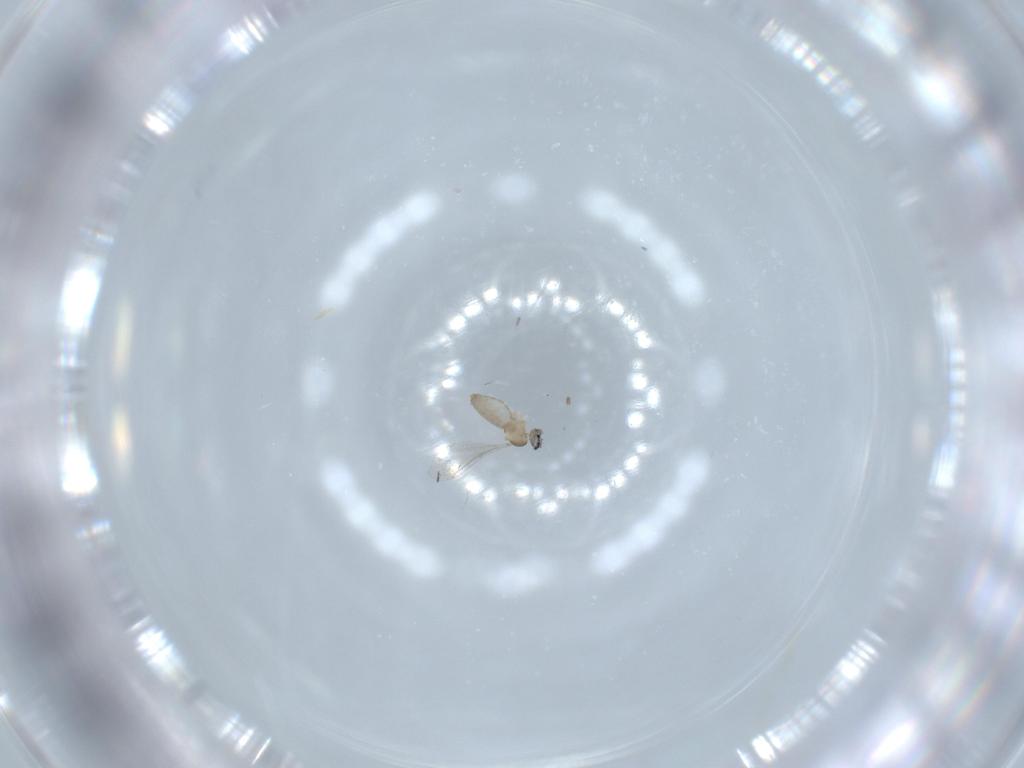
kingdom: Animalia
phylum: Arthropoda
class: Insecta
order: Diptera
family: Cecidomyiidae
